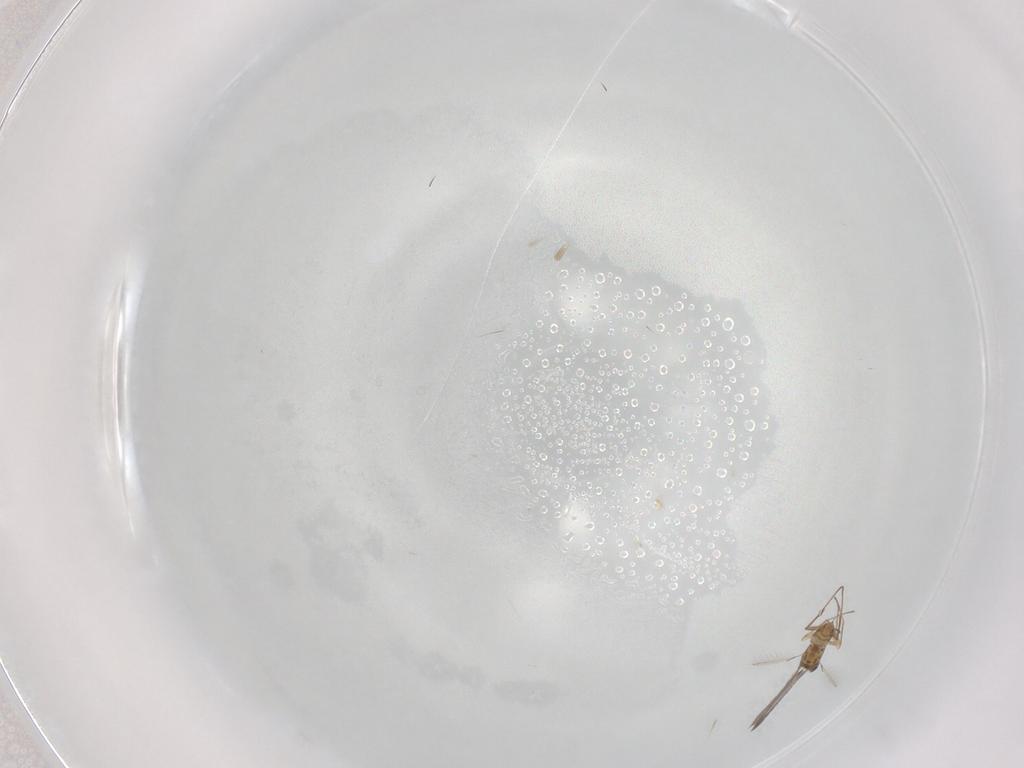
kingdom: Animalia
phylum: Arthropoda
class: Insecta
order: Hymenoptera
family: Mymaridae
